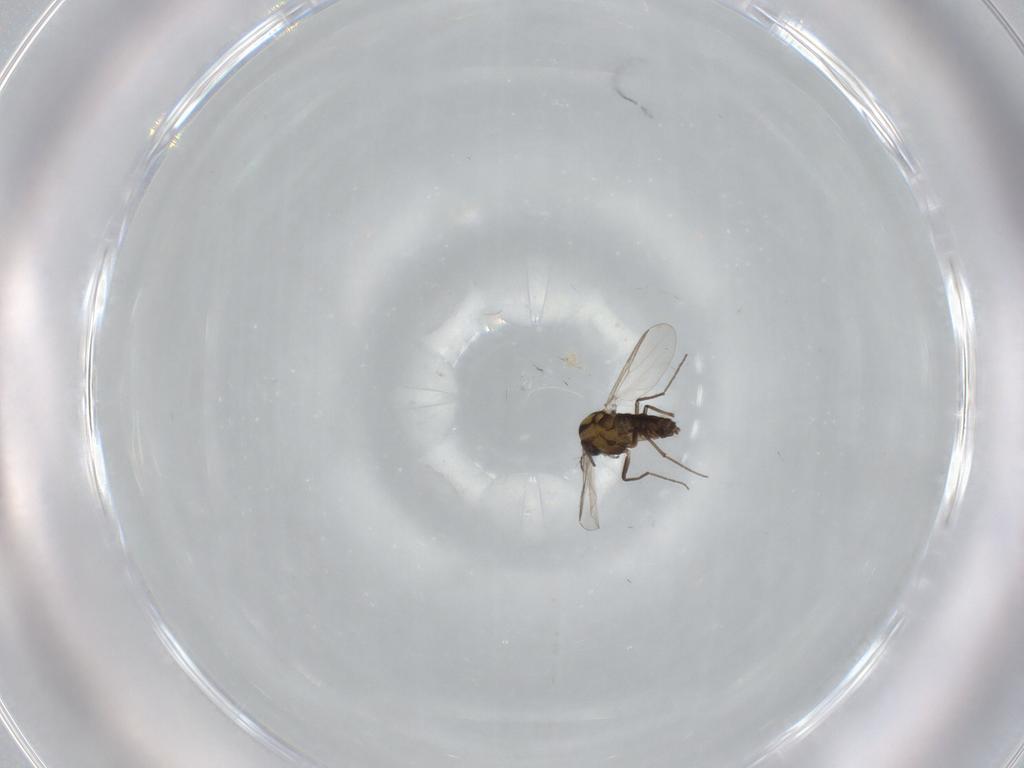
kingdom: Animalia
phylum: Arthropoda
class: Insecta
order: Diptera
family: Chironomidae
